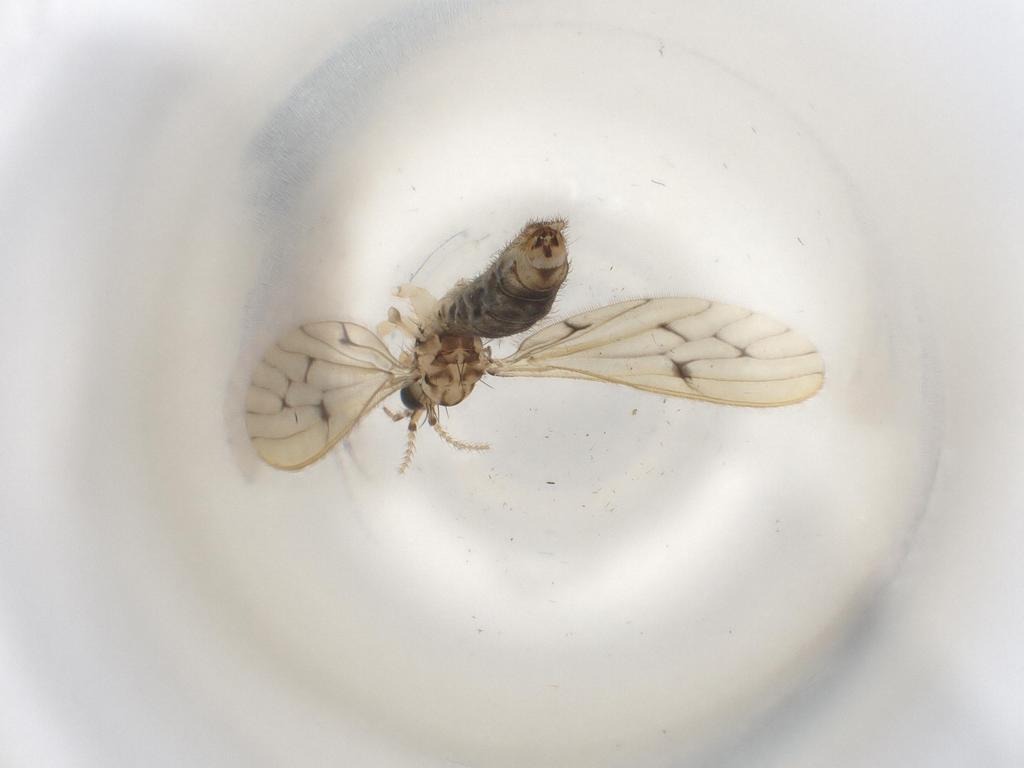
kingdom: Animalia
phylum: Arthropoda
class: Insecta
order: Diptera
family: Limoniidae
